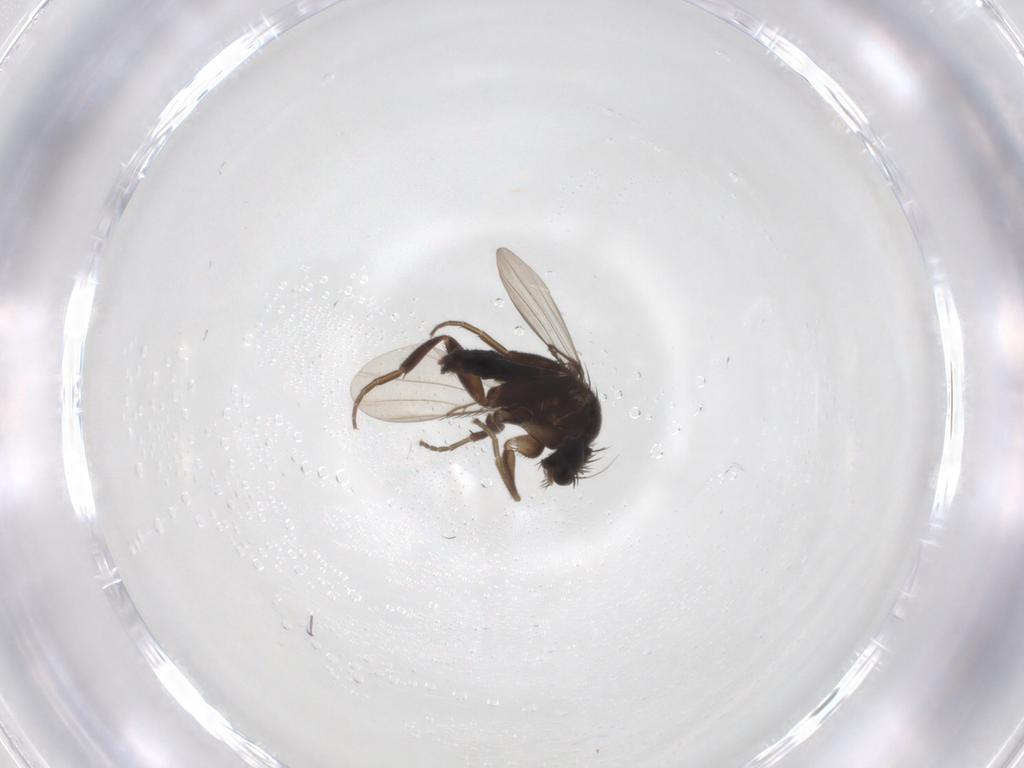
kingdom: Animalia
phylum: Arthropoda
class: Insecta
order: Diptera
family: Phoridae
